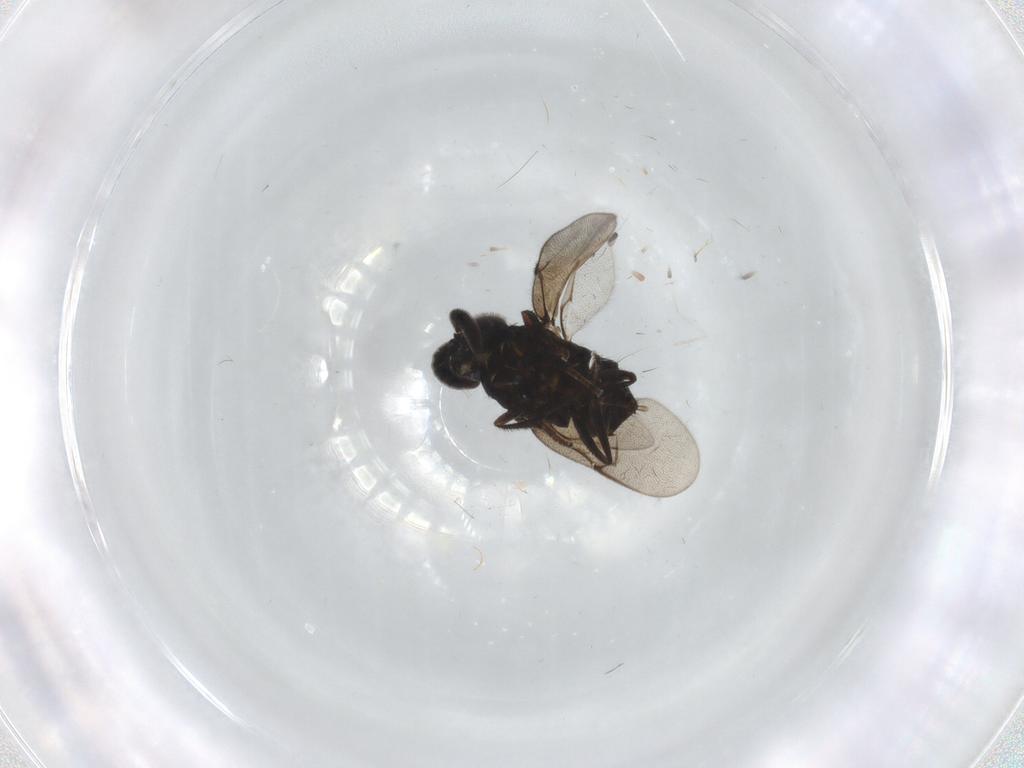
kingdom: Animalia
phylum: Arthropoda
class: Insecta
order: Hymenoptera
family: Encyrtidae
